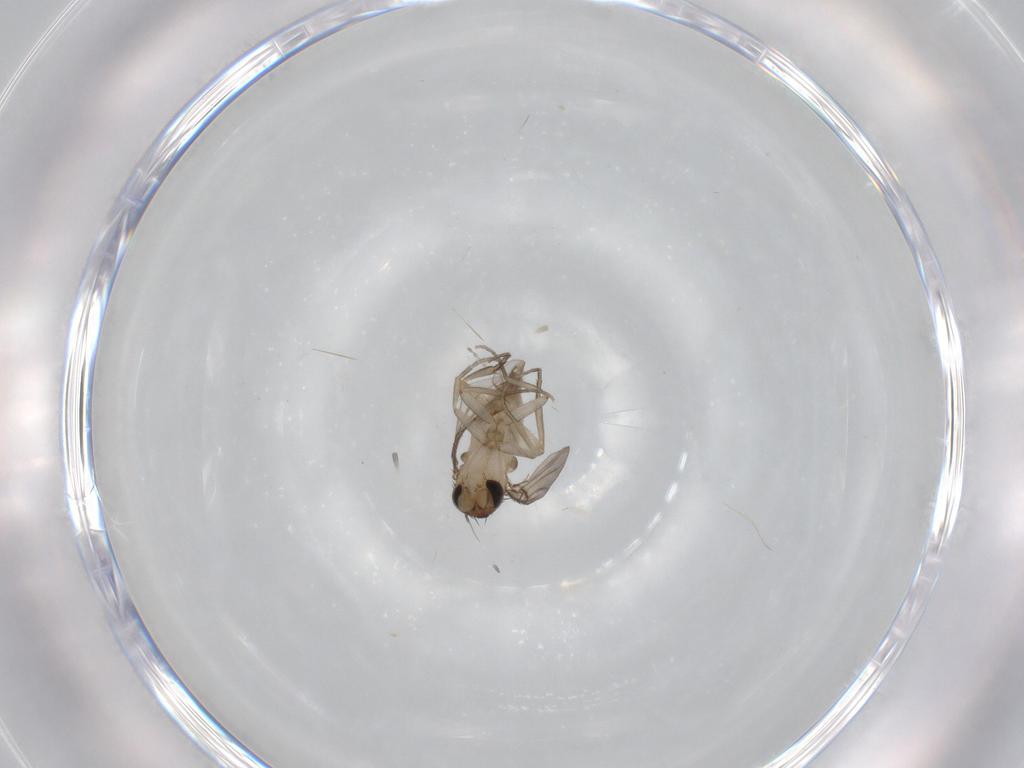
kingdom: Animalia
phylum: Arthropoda
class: Insecta
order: Diptera
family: Phoridae
